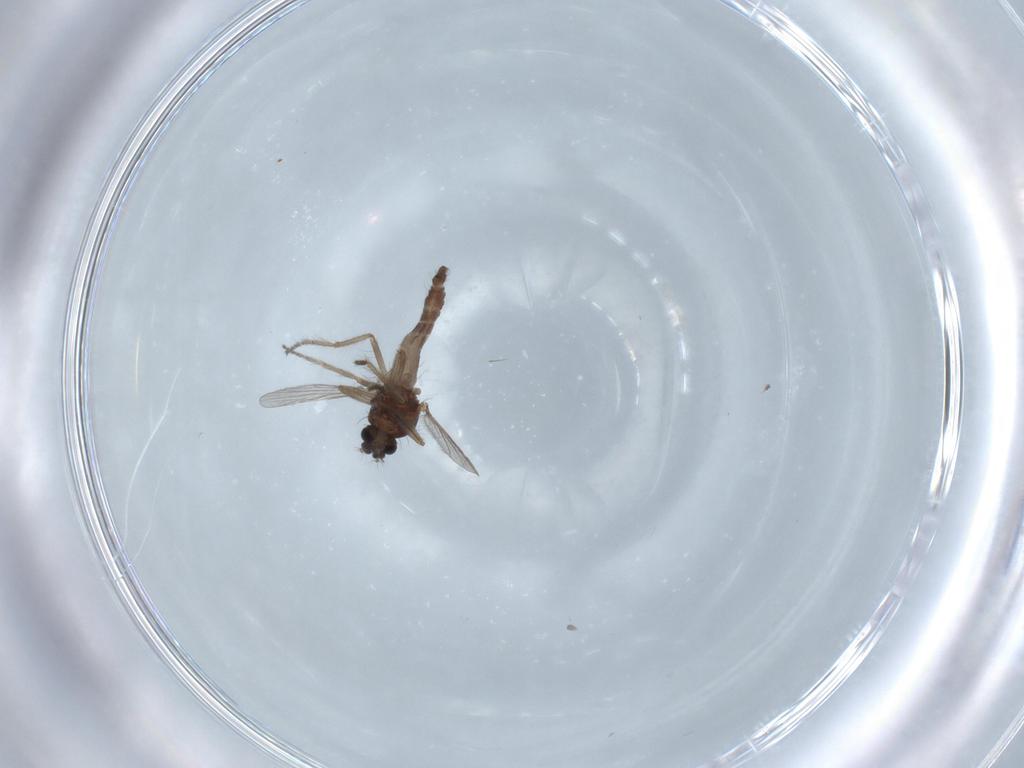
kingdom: Animalia
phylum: Arthropoda
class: Insecta
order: Diptera
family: Ceratopogonidae
